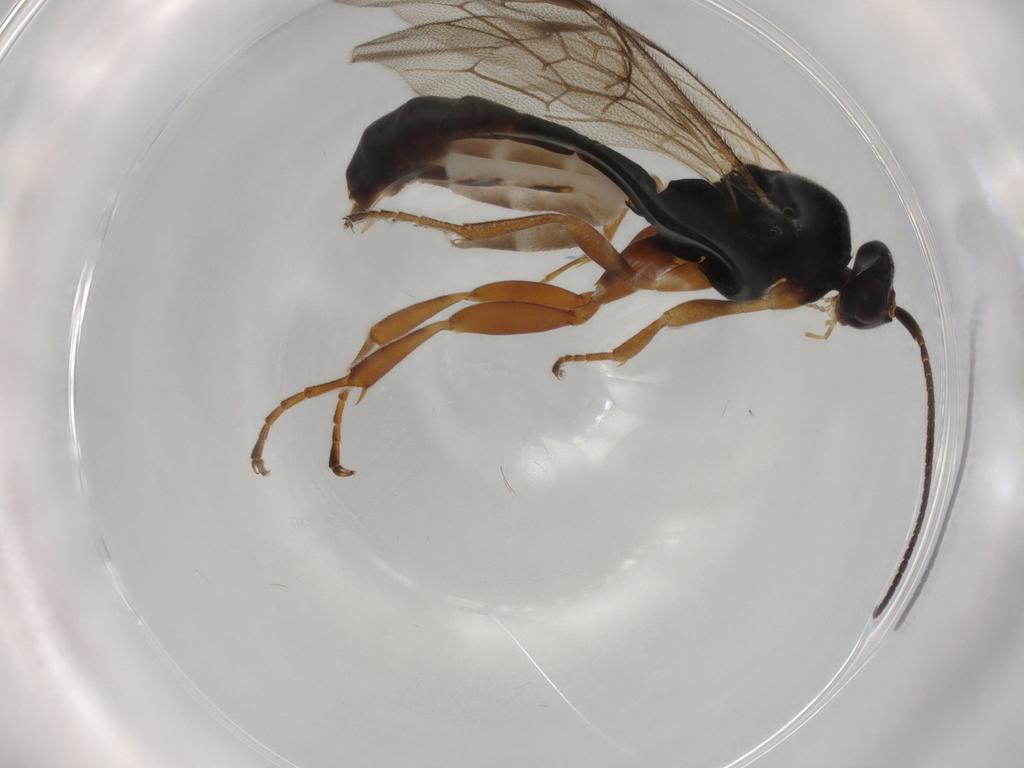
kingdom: Animalia
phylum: Arthropoda
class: Insecta
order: Hymenoptera
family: Ichneumonidae
